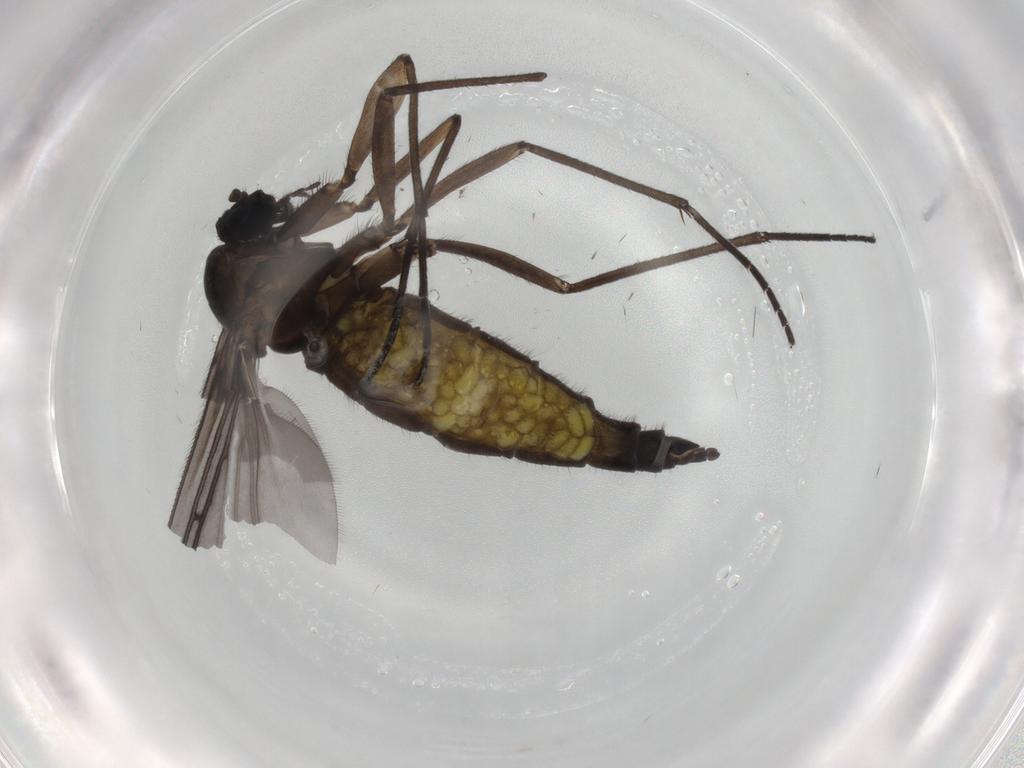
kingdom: Animalia
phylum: Arthropoda
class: Insecta
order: Diptera
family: Sciaridae
